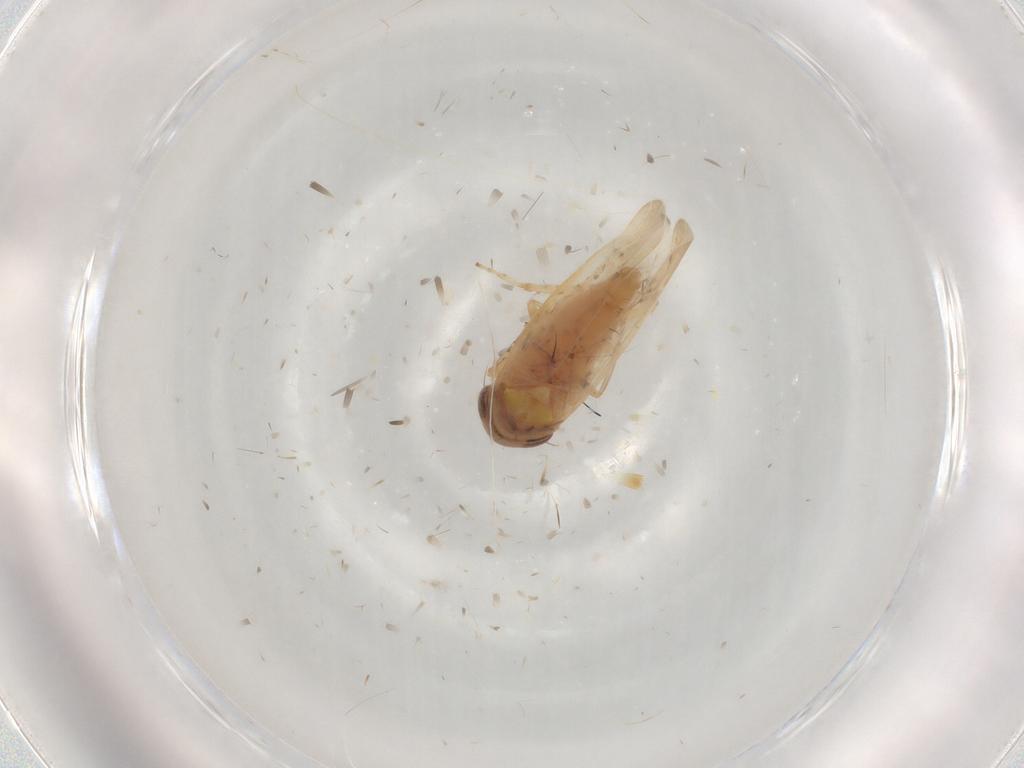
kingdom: Animalia
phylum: Arthropoda
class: Insecta
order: Hemiptera
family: Cicadellidae
